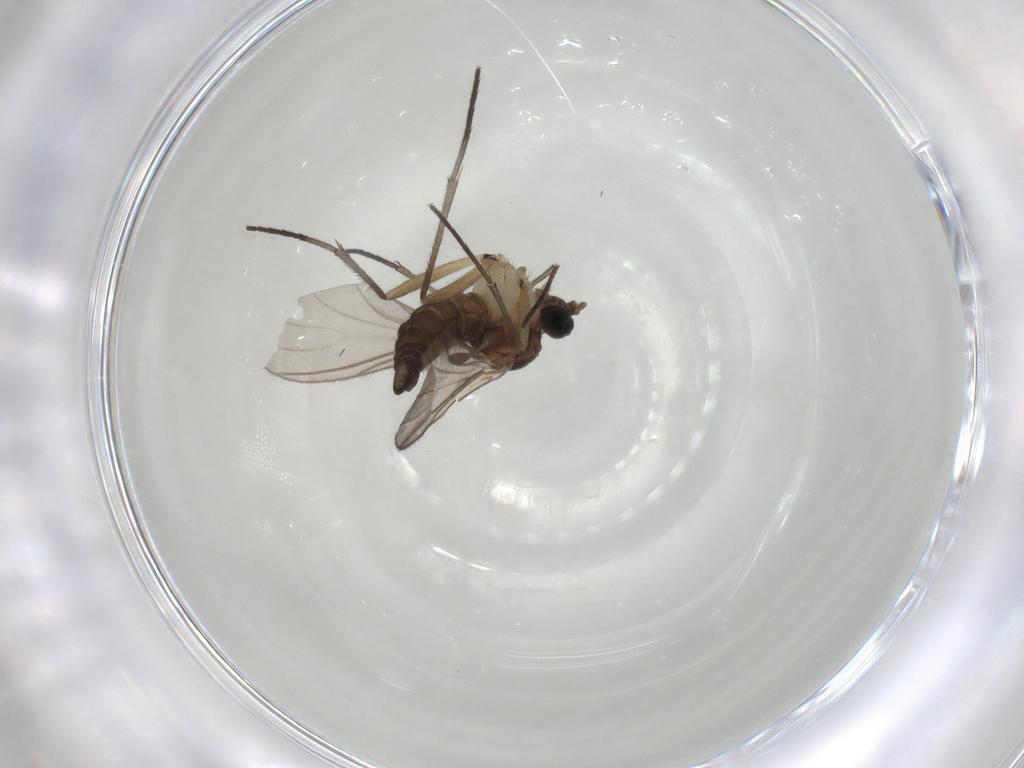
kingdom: Animalia
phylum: Arthropoda
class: Insecta
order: Diptera
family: Sciaridae
